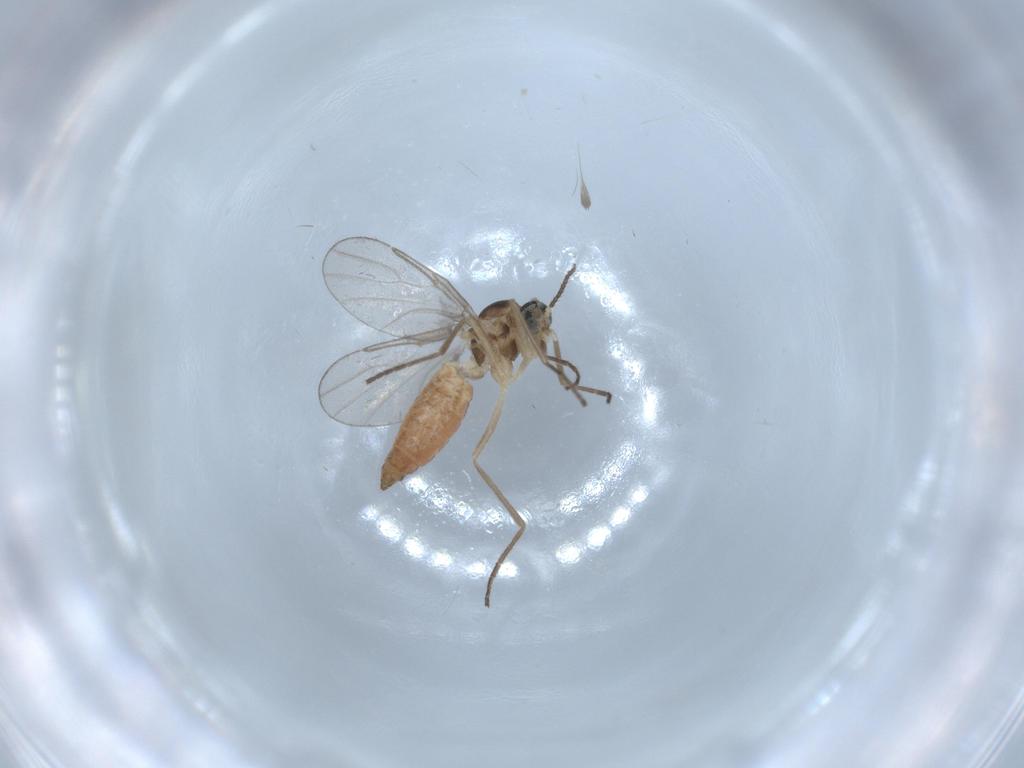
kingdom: Animalia
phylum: Arthropoda
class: Insecta
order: Diptera
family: Cecidomyiidae
